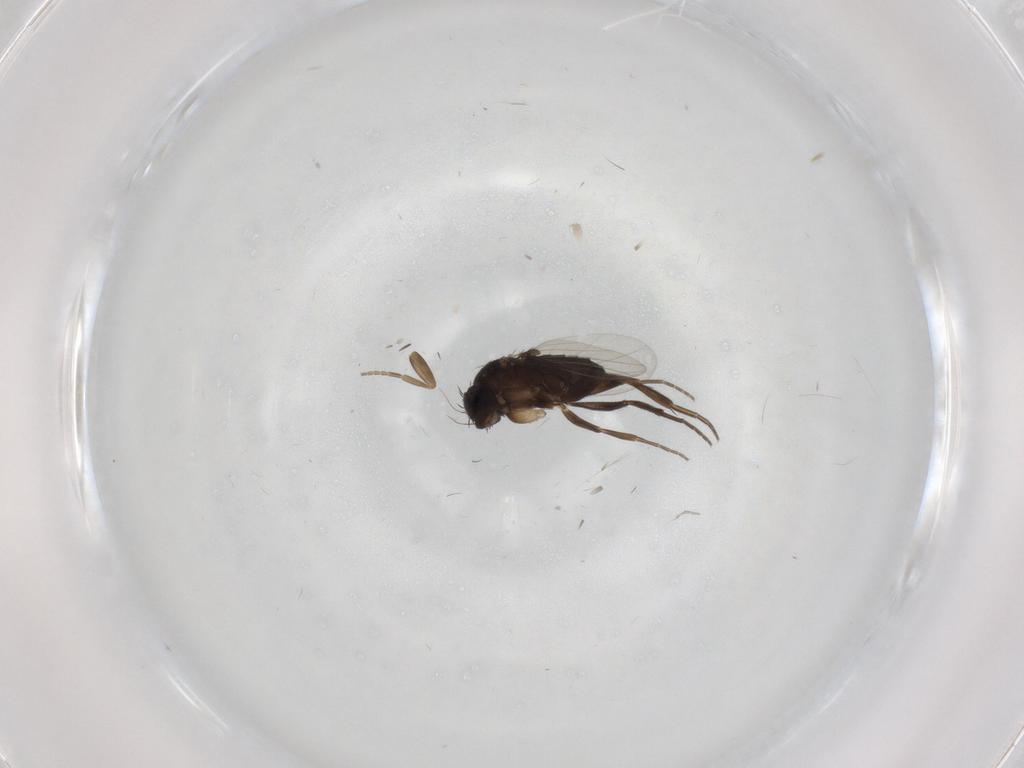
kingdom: Animalia
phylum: Arthropoda
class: Insecta
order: Diptera
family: Phoridae
